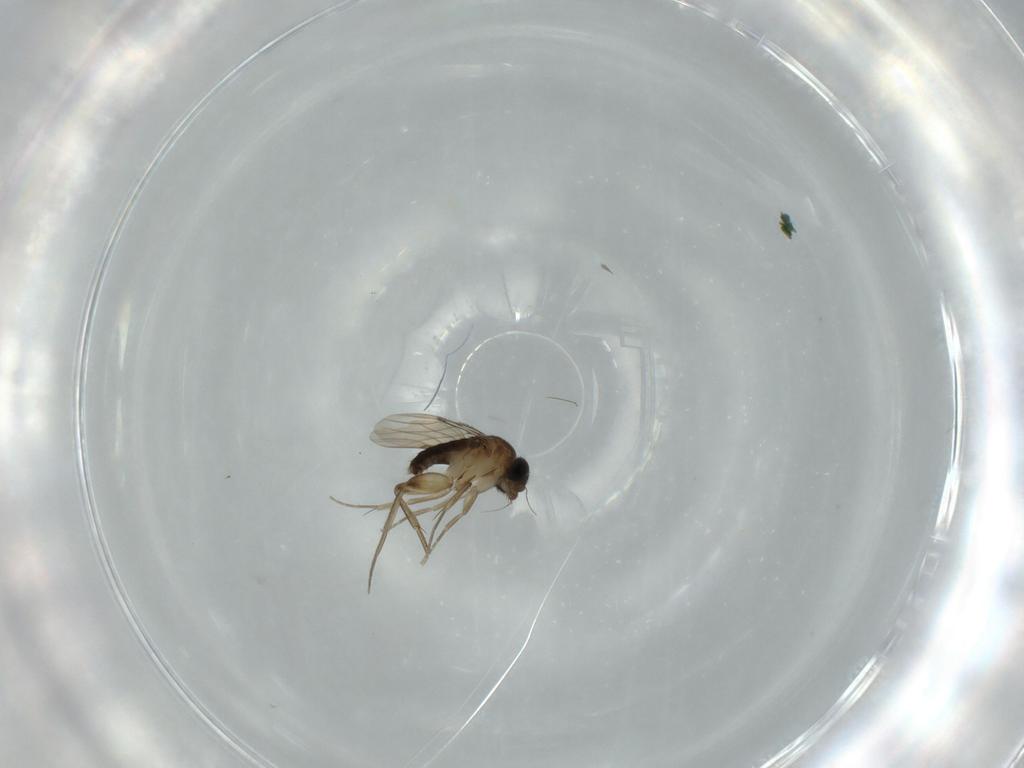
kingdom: Animalia
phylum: Arthropoda
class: Insecta
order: Diptera
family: Phoridae
